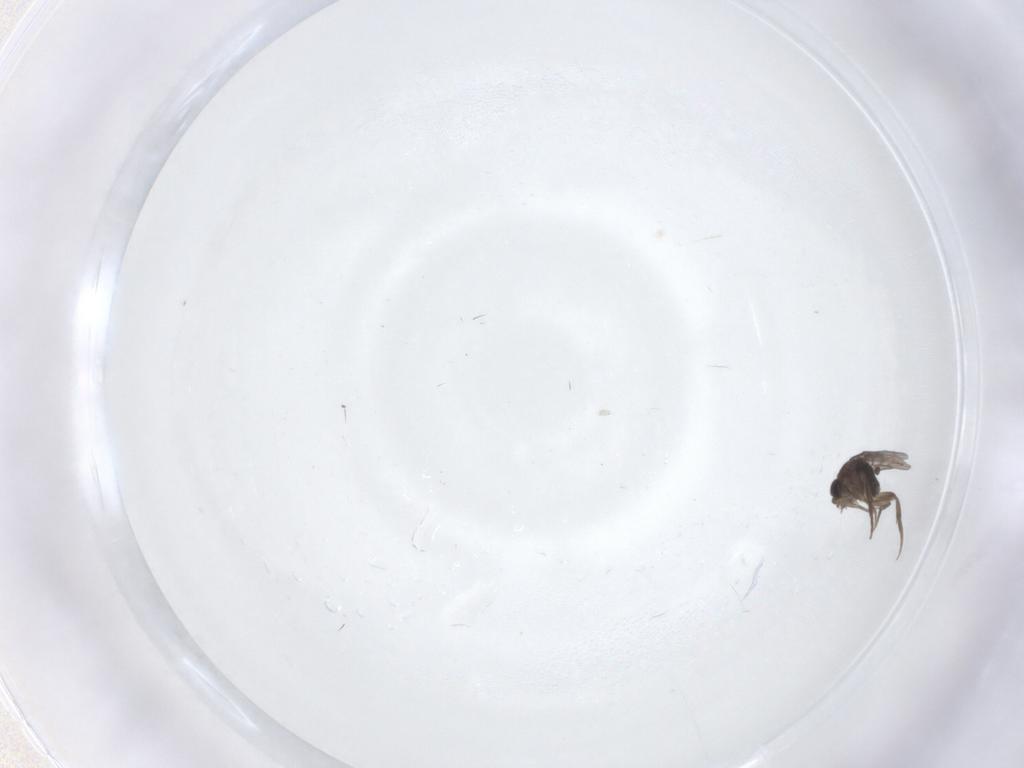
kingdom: Animalia
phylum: Arthropoda
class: Insecta
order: Diptera
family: Phoridae
